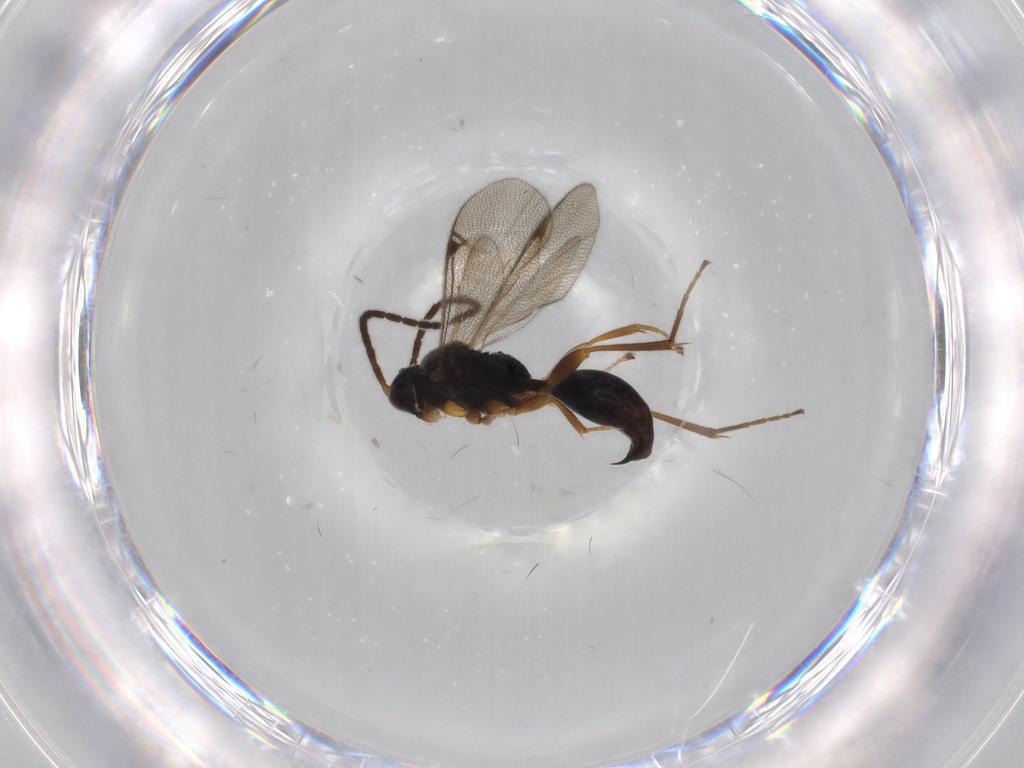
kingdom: Animalia
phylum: Arthropoda
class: Insecta
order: Hymenoptera
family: Proctotrupidae
